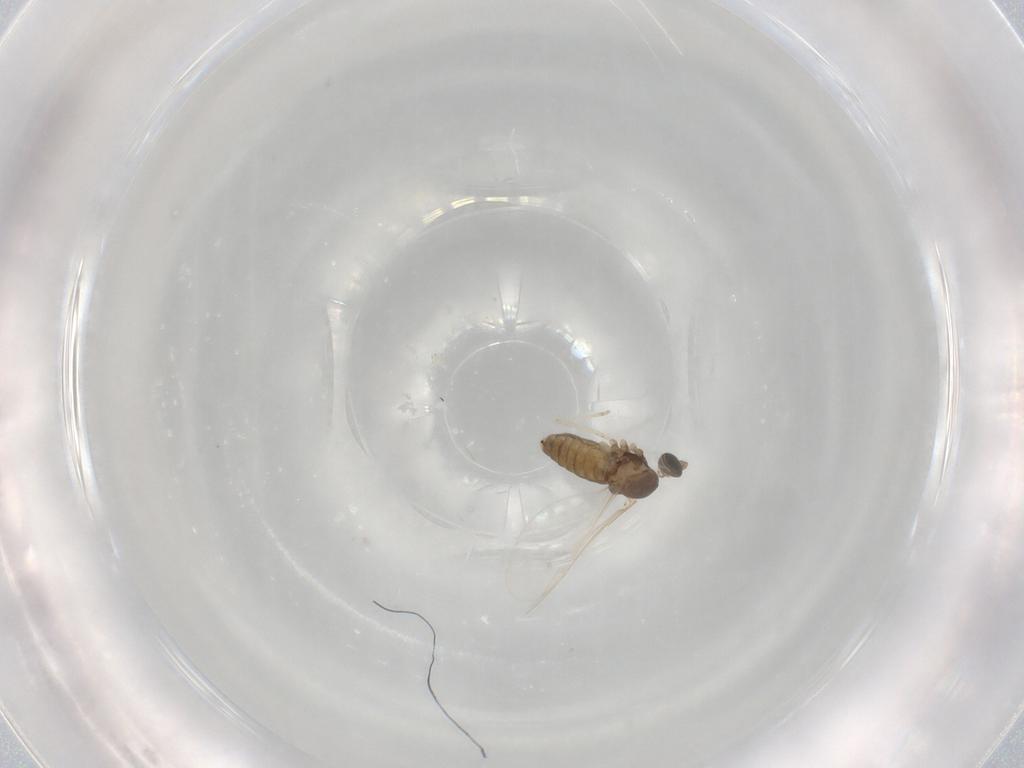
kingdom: Animalia
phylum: Arthropoda
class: Insecta
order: Diptera
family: Cecidomyiidae
